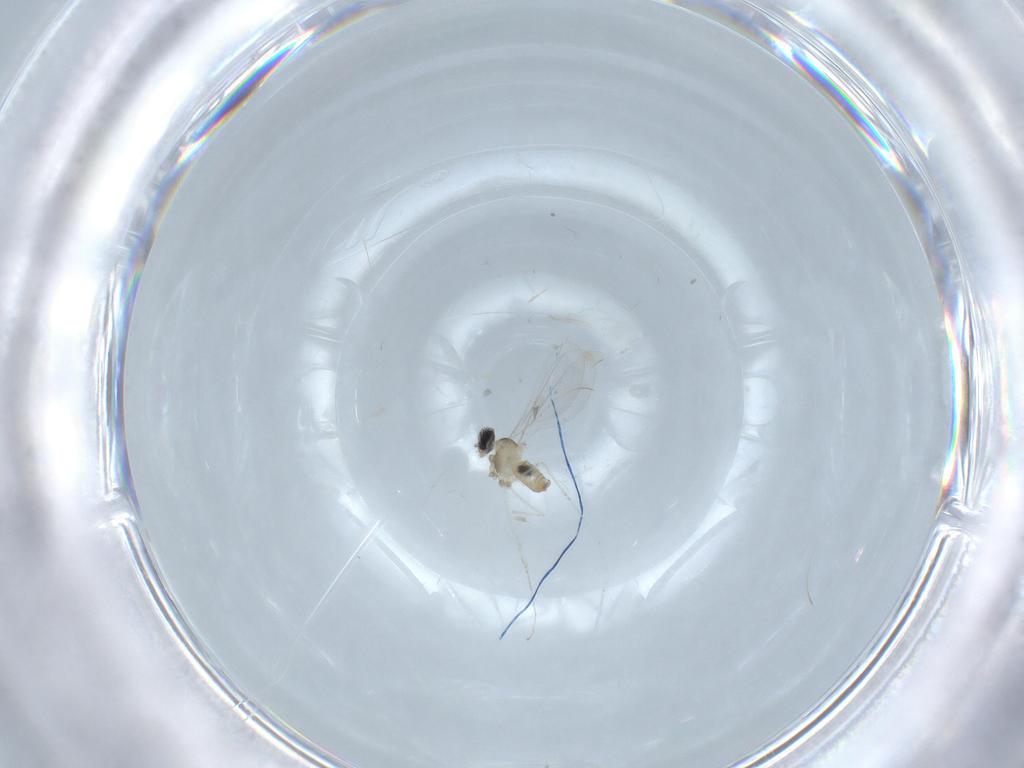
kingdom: Animalia
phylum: Arthropoda
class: Insecta
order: Diptera
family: Cecidomyiidae
